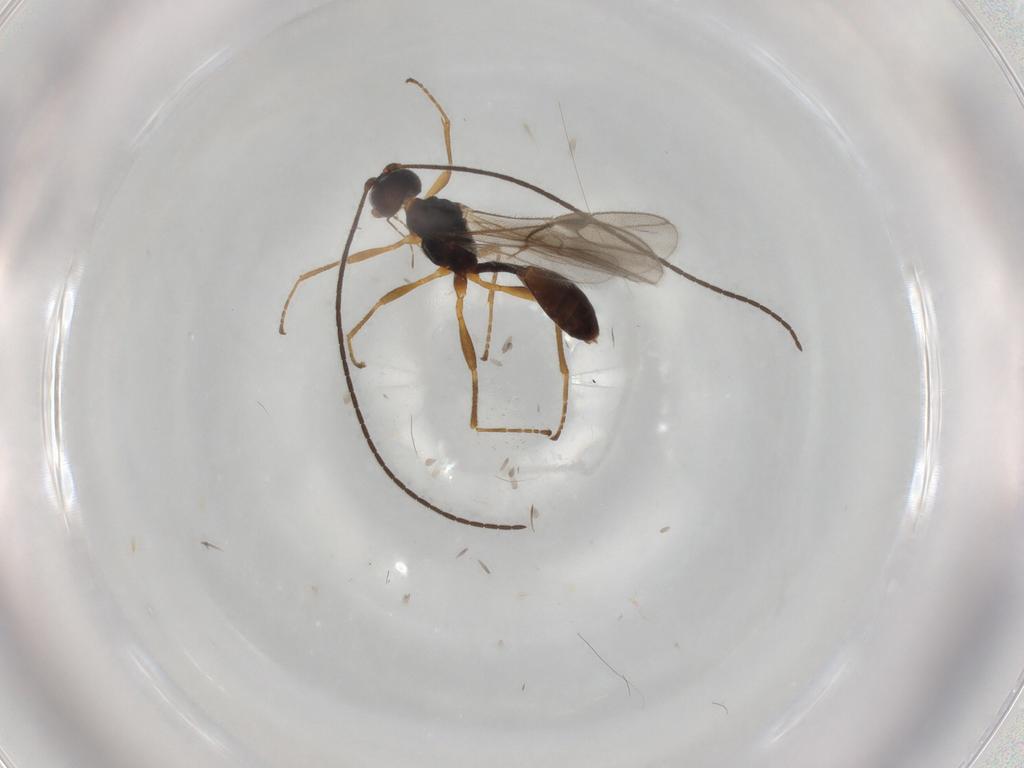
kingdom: Animalia
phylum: Arthropoda
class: Insecta
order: Hymenoptera
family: Braconidae
